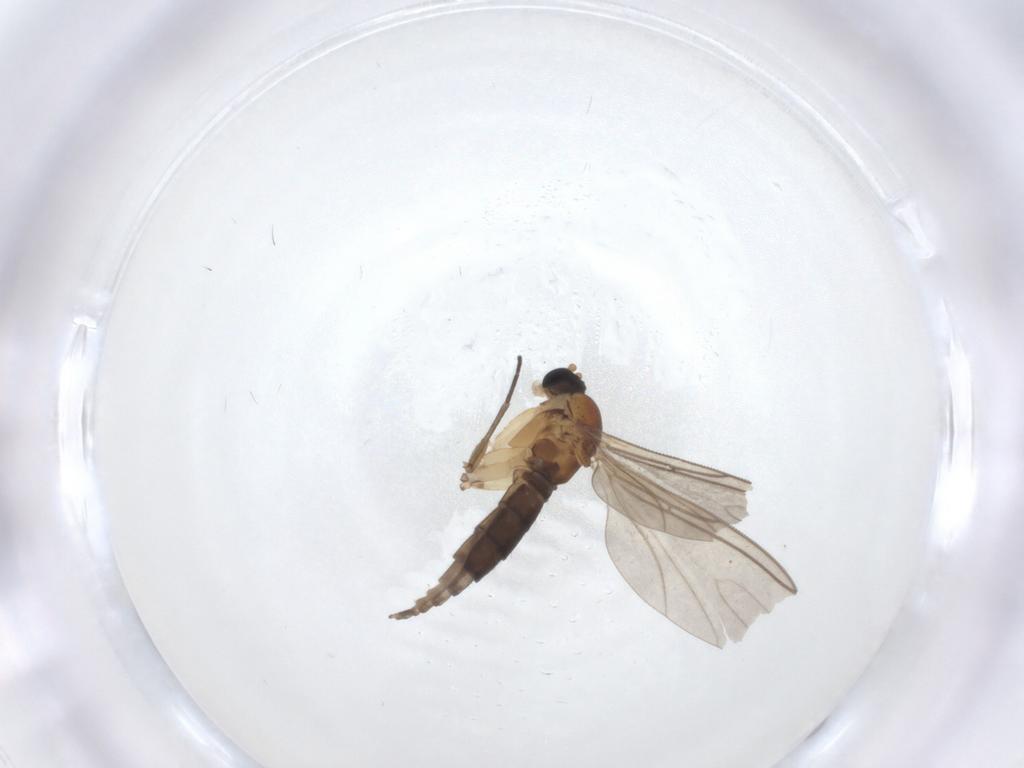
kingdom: Animalia
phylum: Arthropoda
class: Insecta
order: Diptera
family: Sciaridae
